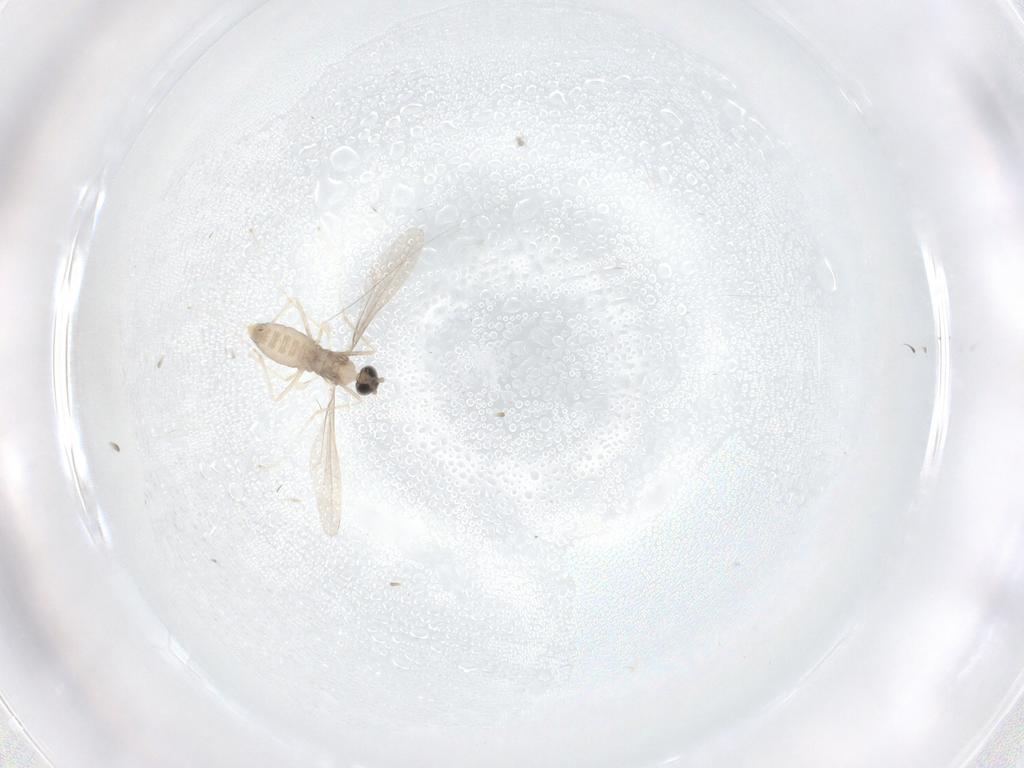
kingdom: Animalia
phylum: Arthropoda
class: Insecta
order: Diptera
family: Cecidomyiidae
